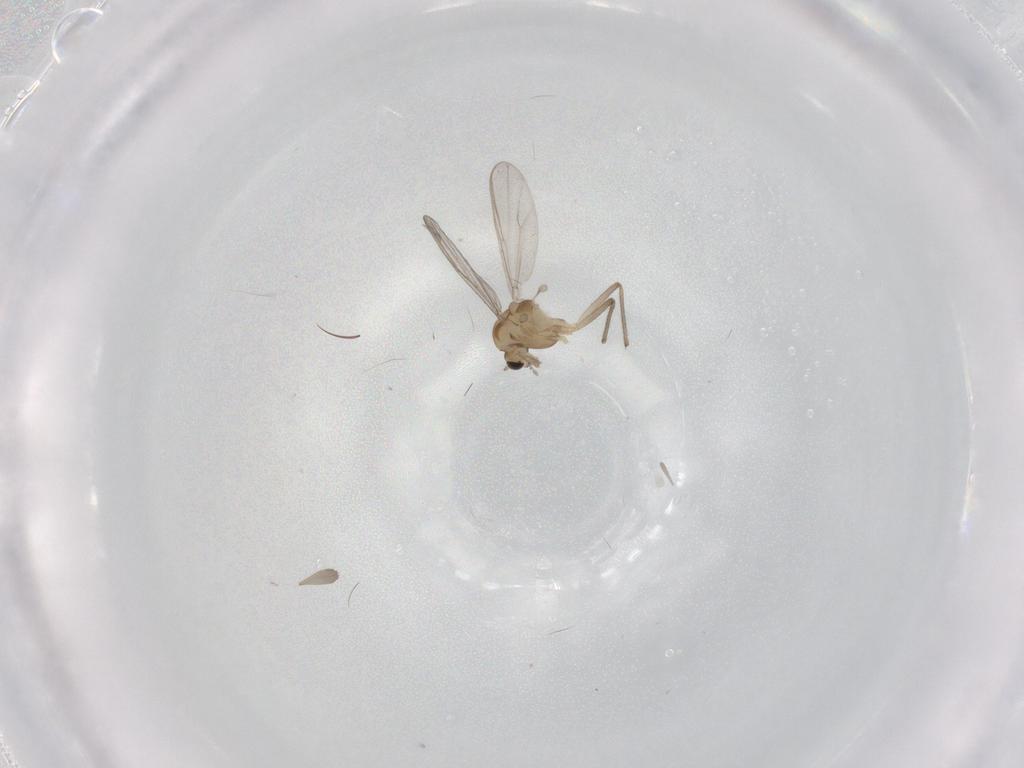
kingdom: Animalia
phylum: Arthropoda
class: Insecta
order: Diptera
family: Chironomidae
